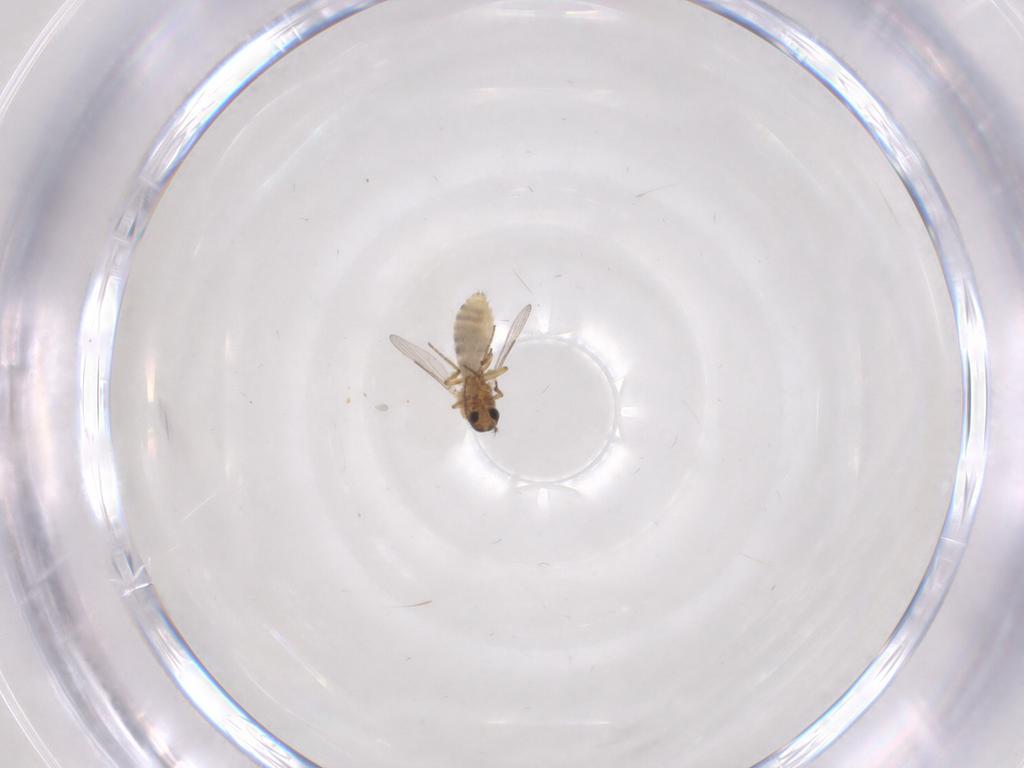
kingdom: Animalia
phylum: Arthropoda
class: Insecta
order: Diptera
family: Ceratopogonidae
